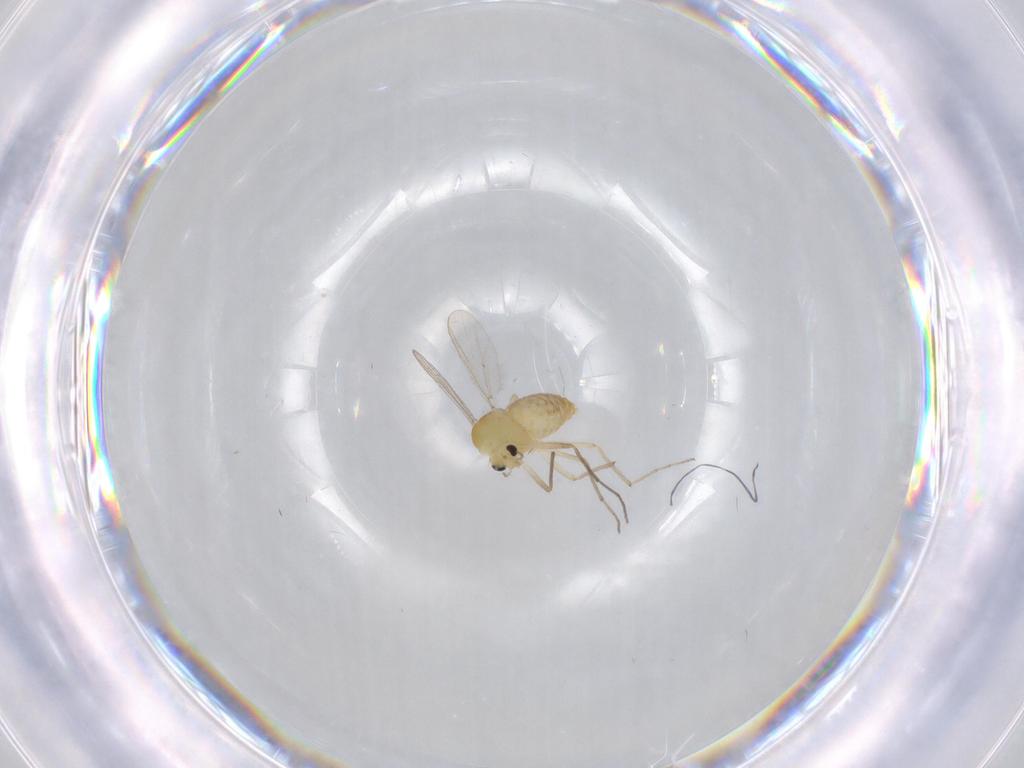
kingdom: Animalia
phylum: Arthropoda
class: Insecta
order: Diptera
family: Chironomidae
